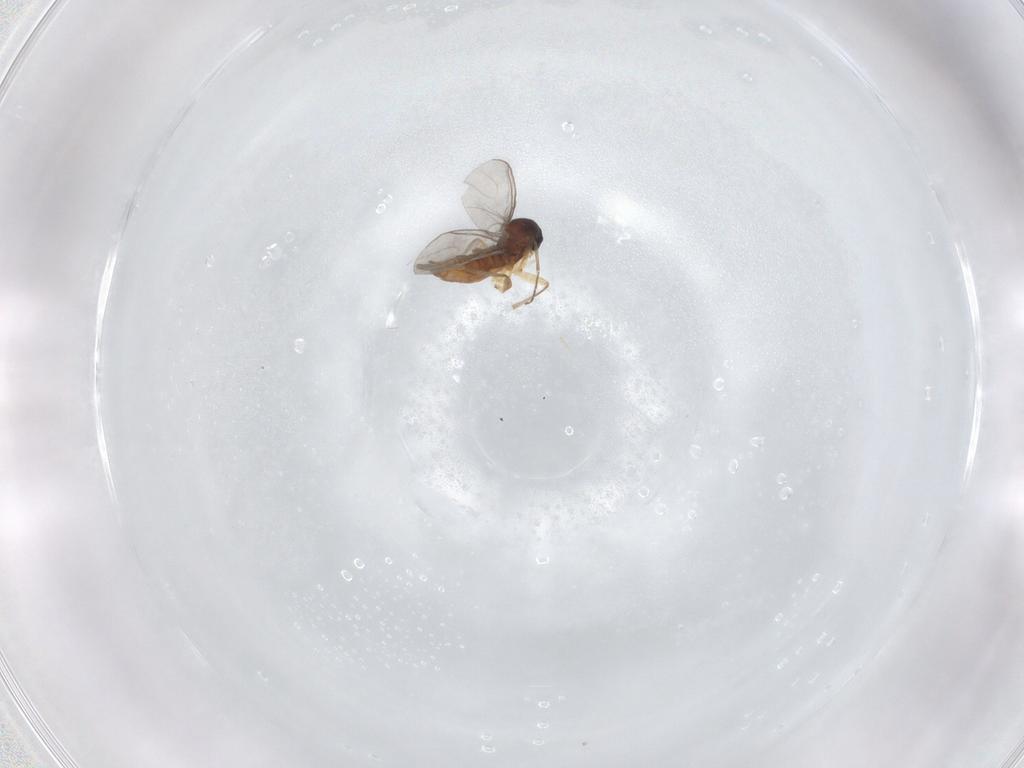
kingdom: Animalia
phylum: Arthropoda
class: Insecta
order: Diptera
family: Sciaridae
